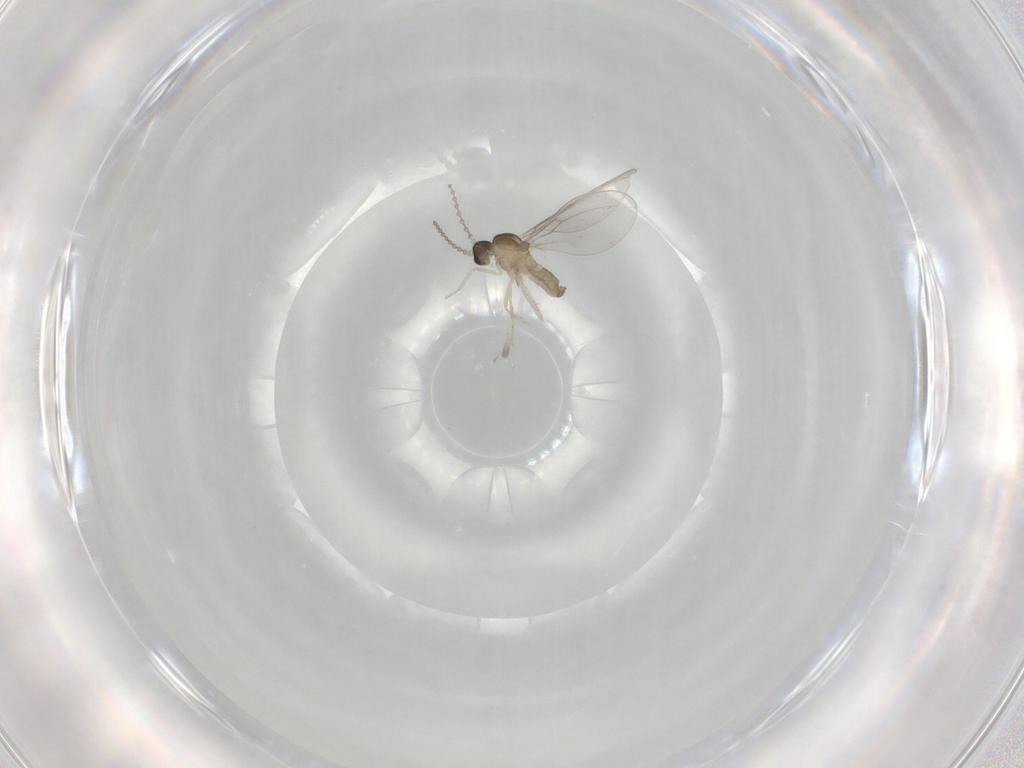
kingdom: Animalia
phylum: Arthropoda
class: Insecta
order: Diptera
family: Cecidomyiidae
